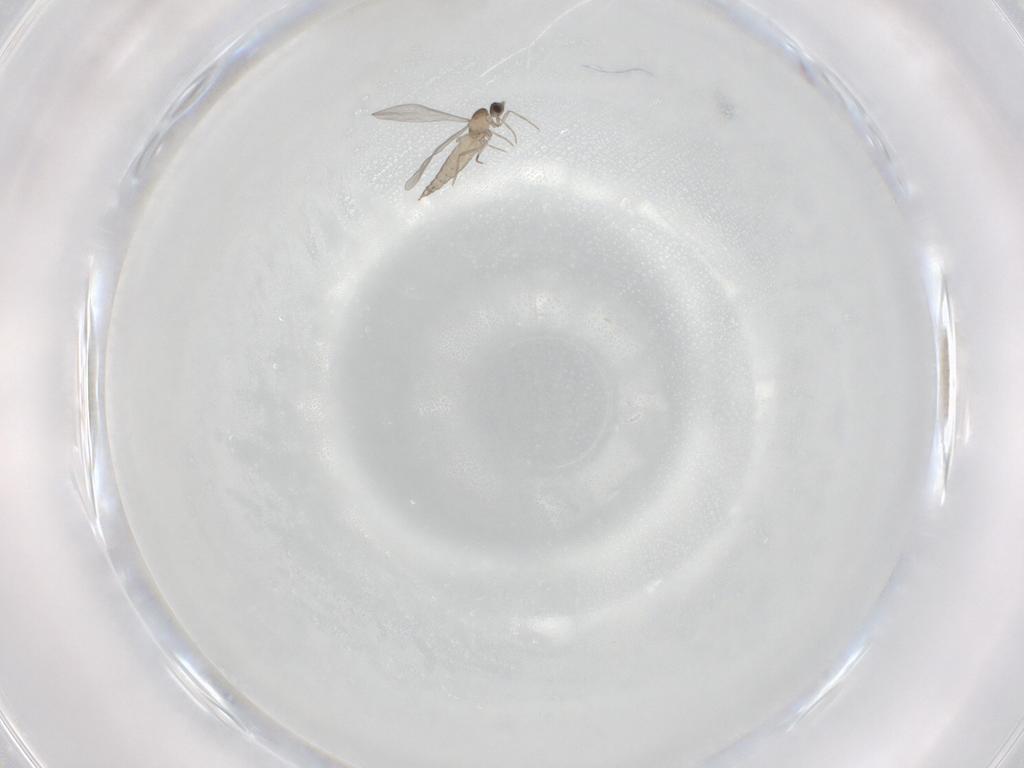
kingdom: Animalia
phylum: Arthropoda
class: Insecta
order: Diptera
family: Cecidomyiidae
